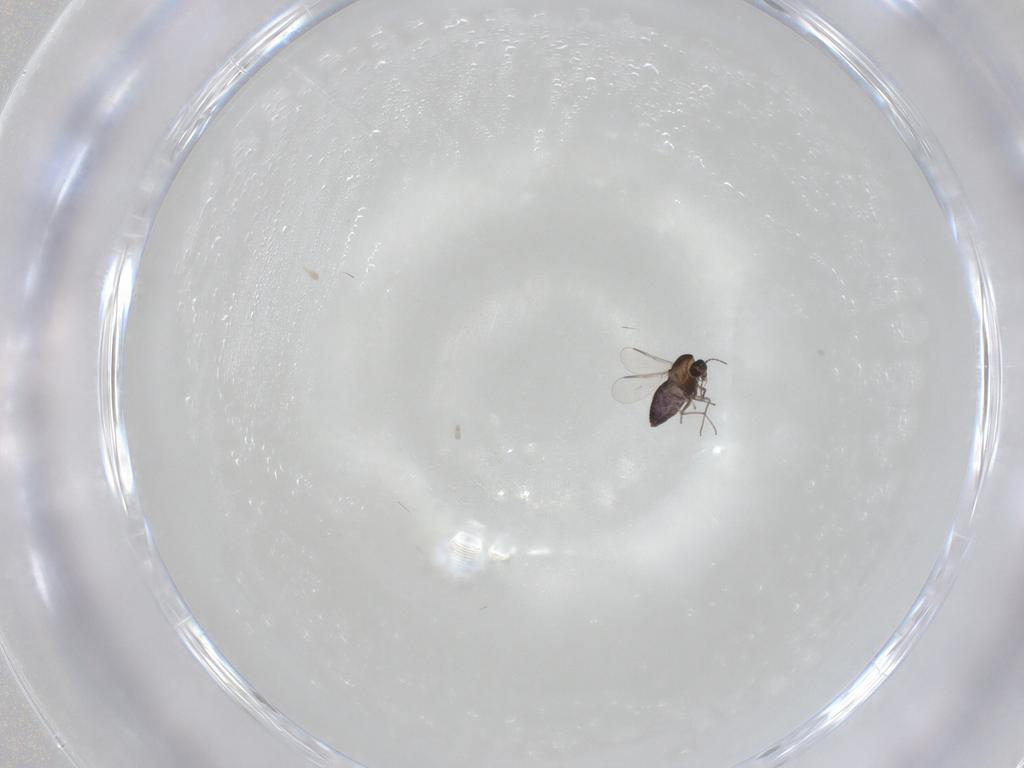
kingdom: Animalia
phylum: Arthropoda
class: Insecta
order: Diptera
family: Chironomidae
